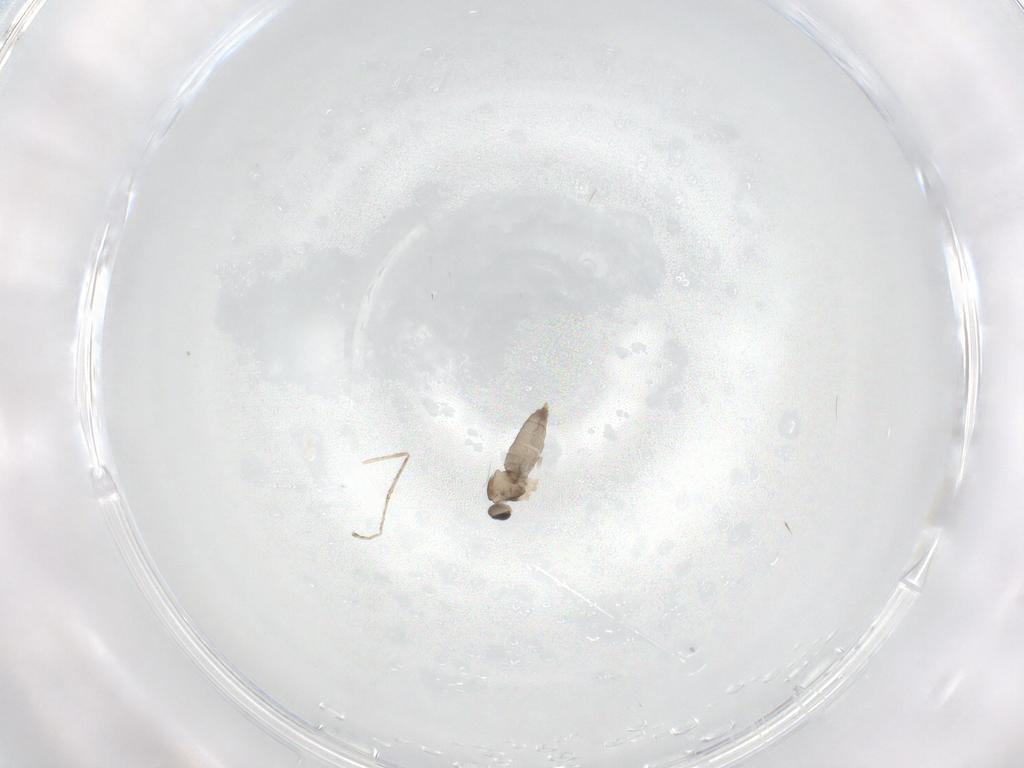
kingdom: Animalia
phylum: Arthropoda
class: Insecta
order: Diptera
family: Cecidomyiidae
